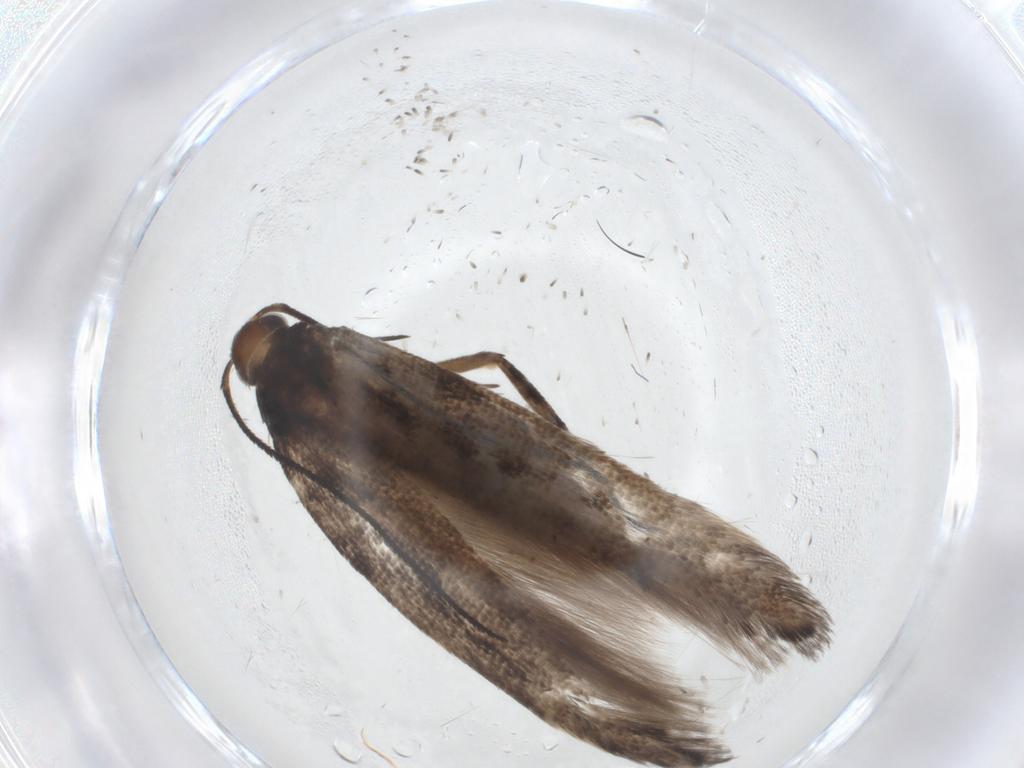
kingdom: Animalia
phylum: Arthropoda
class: Insecta
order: Lepidoptera
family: Gelechiidae
